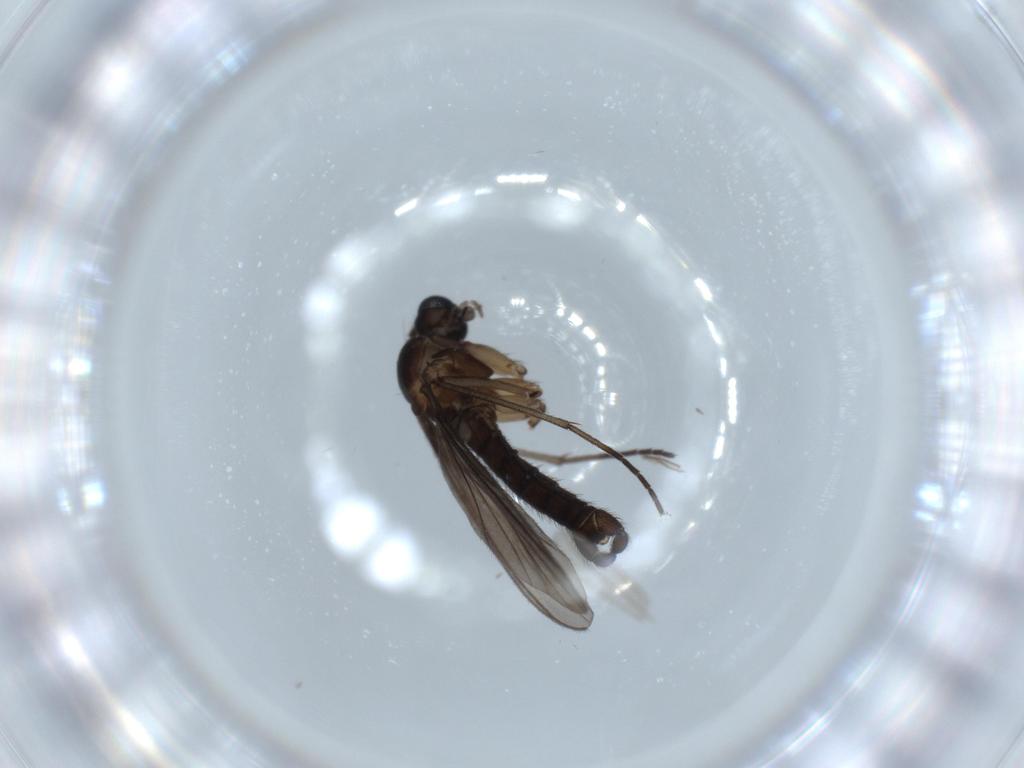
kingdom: Animalia
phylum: Arthropoda
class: Insecta
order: Diptera
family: Sciaridae
